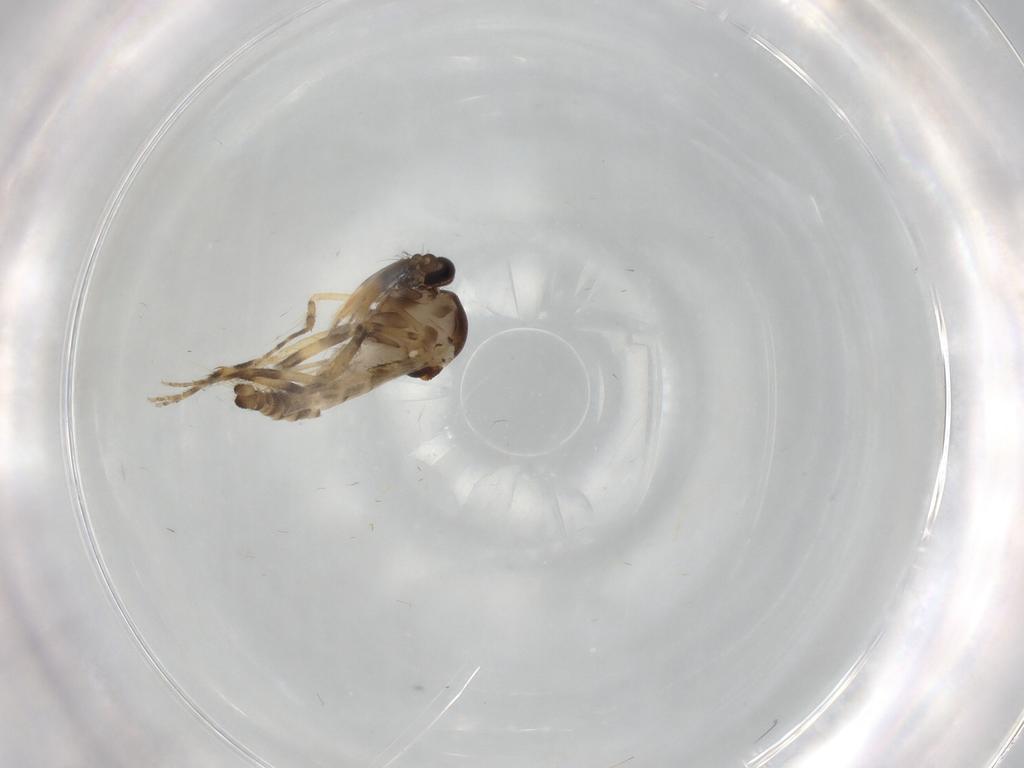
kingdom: Animalia
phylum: Arthropoda
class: Insecta
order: Diptera
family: Ceratopogonidae
